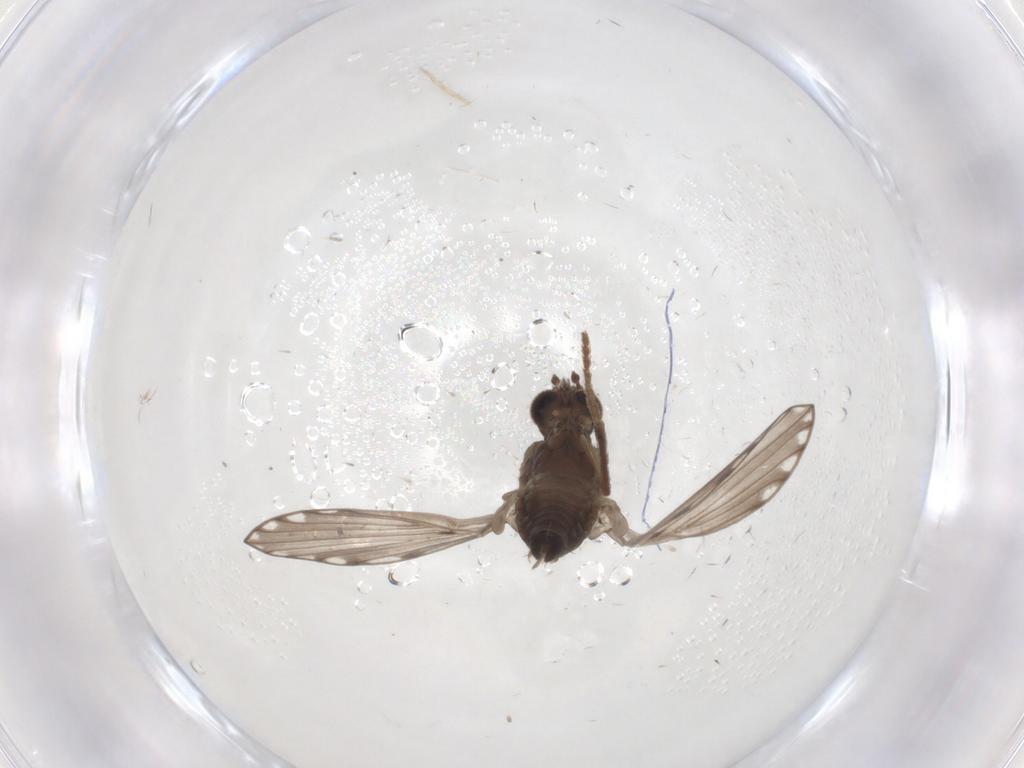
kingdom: Animalia
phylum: Arthropoda
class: Insecta
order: Diptera
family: Psychodidae
